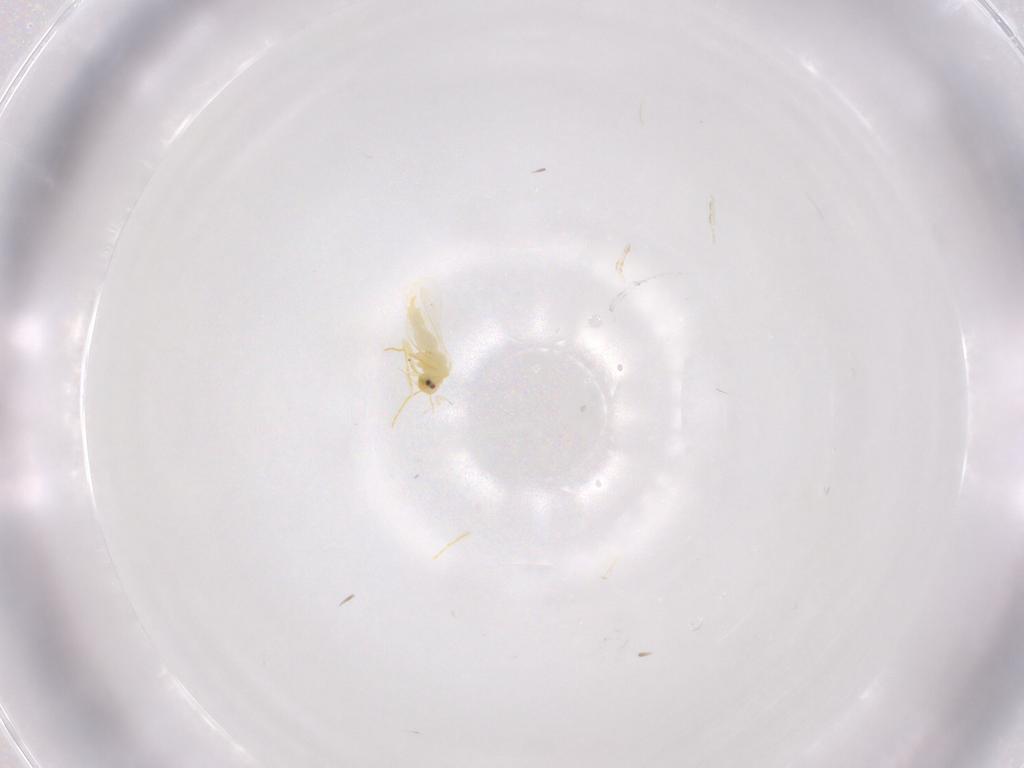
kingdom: Animalia
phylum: Arthropoda
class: Insecta
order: Hemiptera
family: Aleyrodidae
